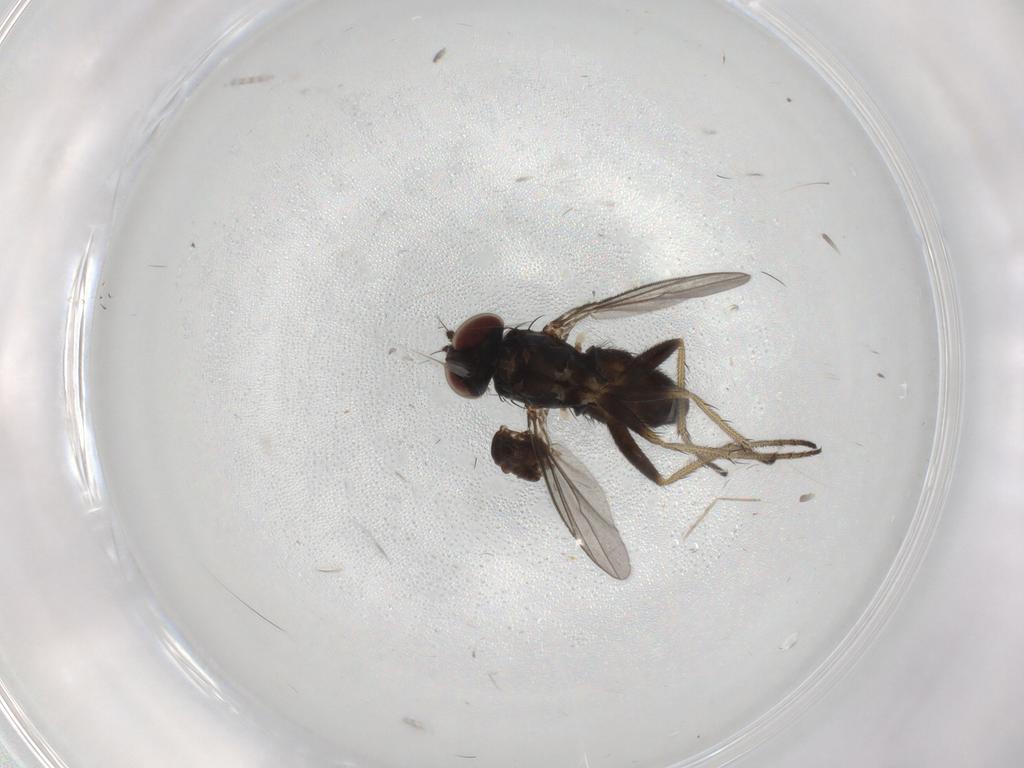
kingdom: Animalia
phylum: Arthropoda
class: Insecta
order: Diptera
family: Dolichopodidae
